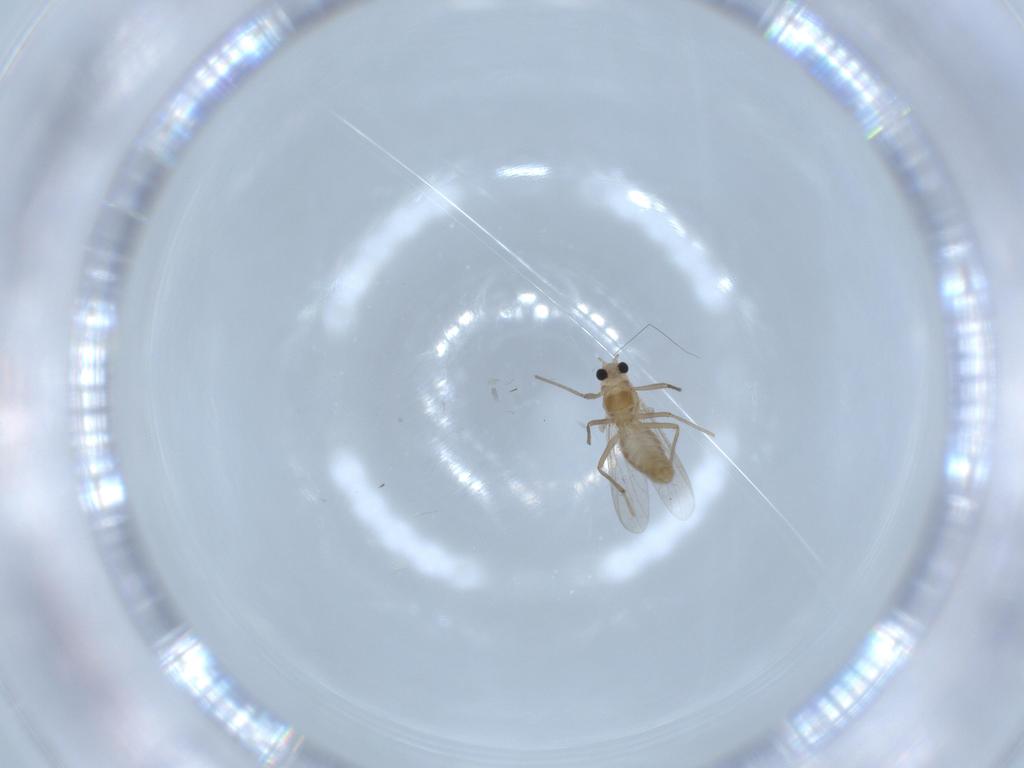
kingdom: Animalia
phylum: Arthropoda
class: Insecta
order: Diptera
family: Chironomidae
